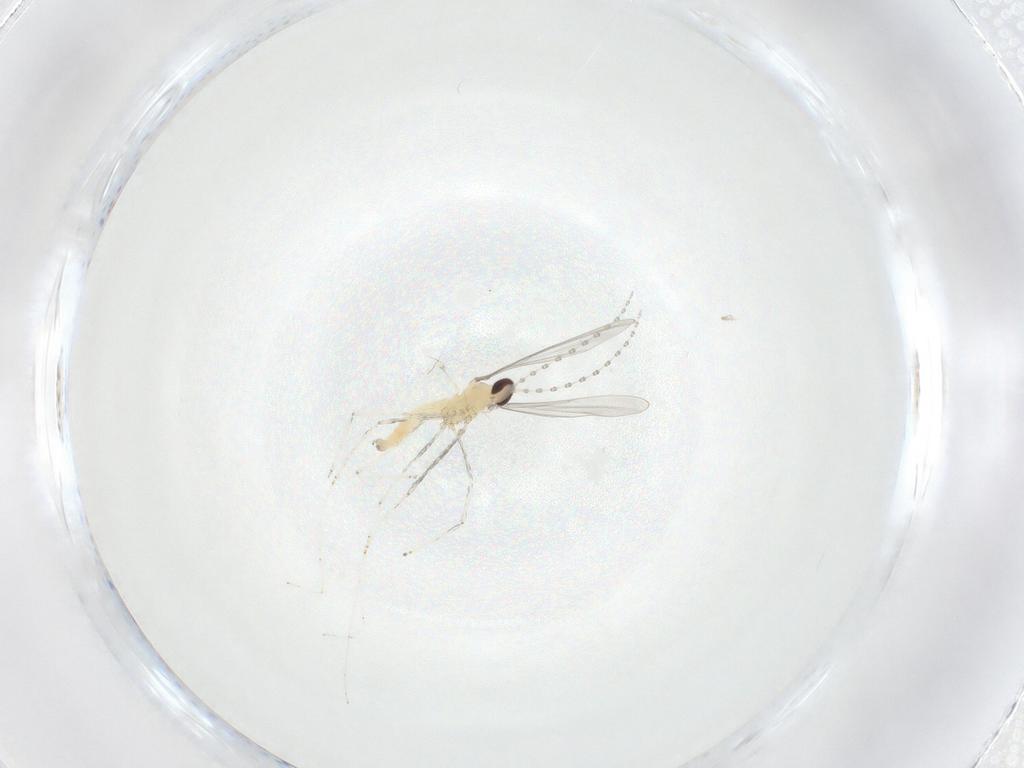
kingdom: Animalia
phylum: Arthropoda
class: Insecta
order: Diptera
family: Cecidomyiidae
